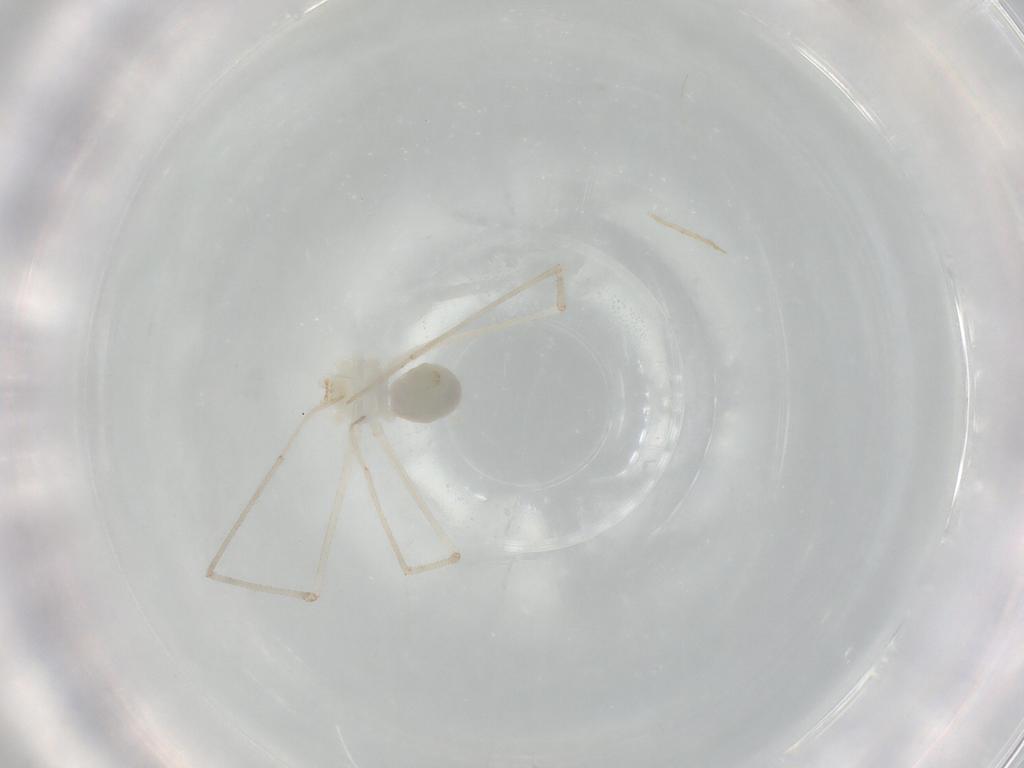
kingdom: Animalia
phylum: Arthropoda
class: Arachnida
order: Araneae
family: Pholcidae
